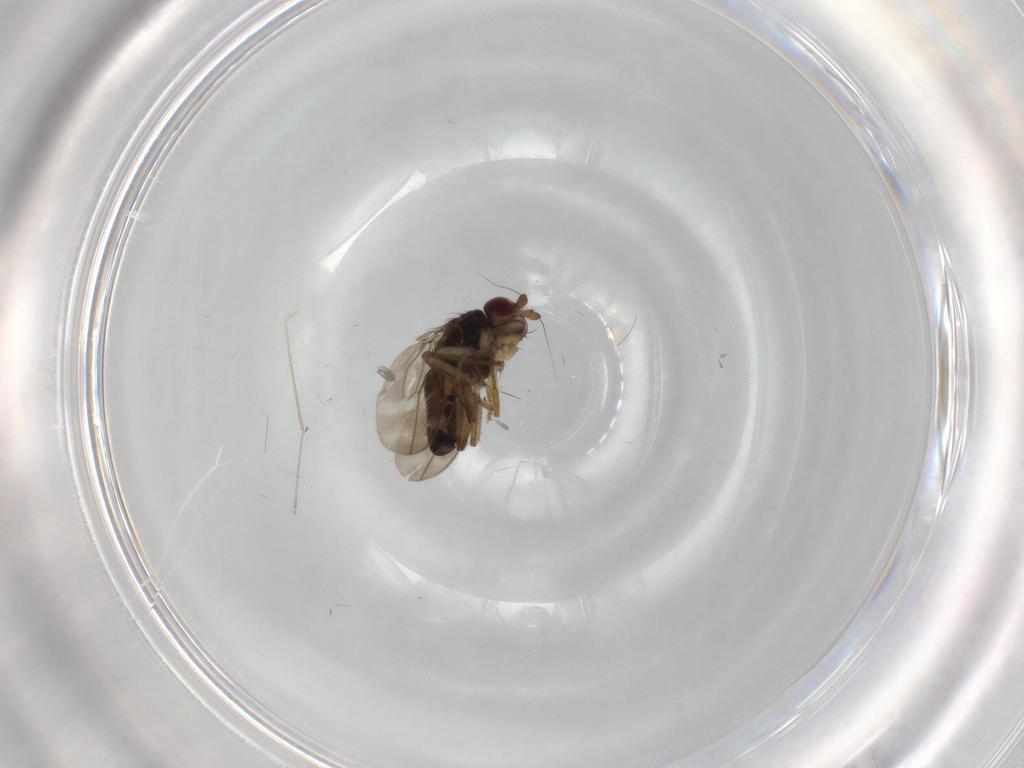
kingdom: Animalia
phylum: Arthropoda
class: Insecta
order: Diptera
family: Sphaeroceridae
